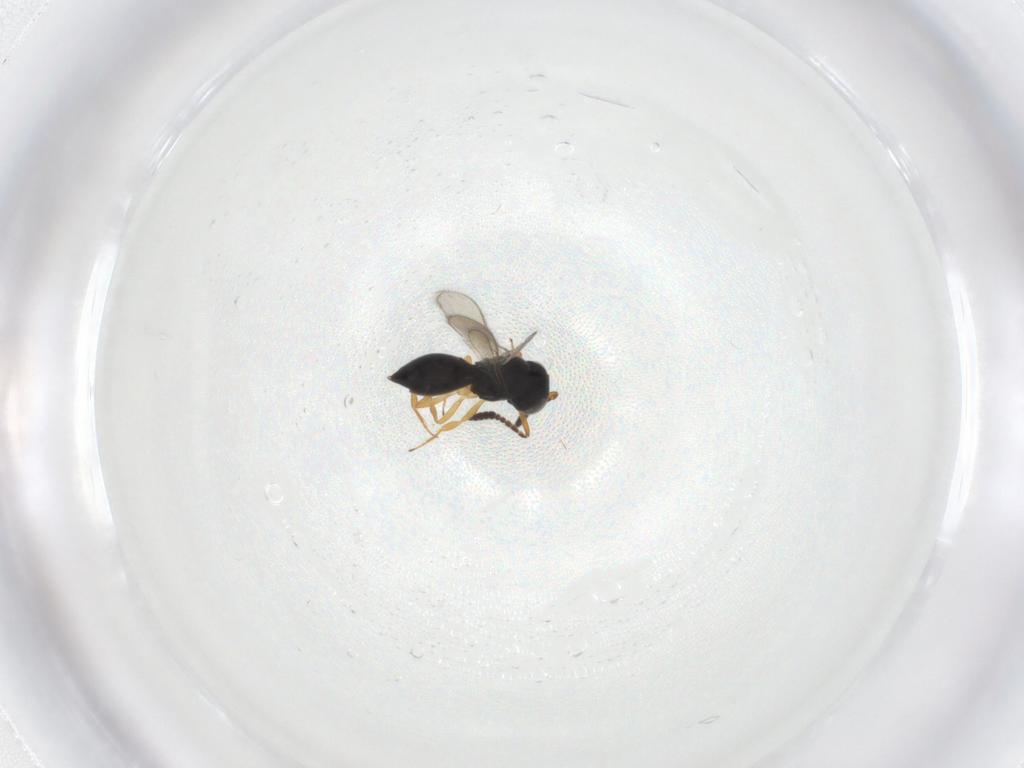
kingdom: Animalia
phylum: Arthropoda
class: Insecta
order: Hymenoptera
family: Scelionidae
